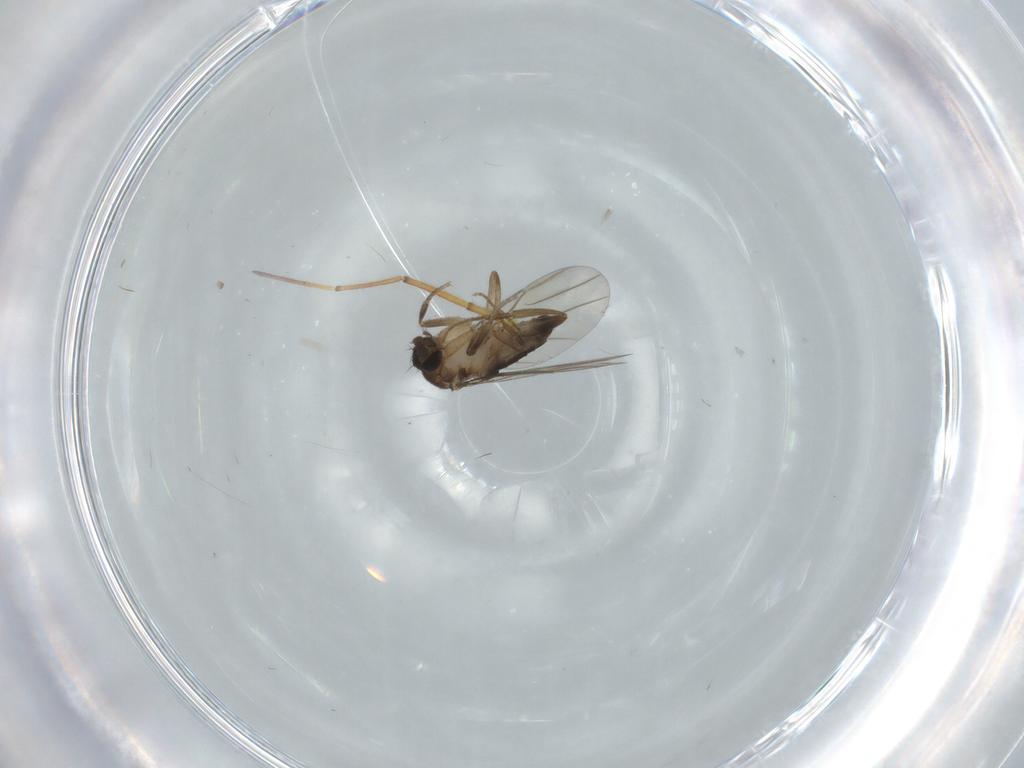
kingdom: Animalia
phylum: Arthropoda
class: Insecta
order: Diptera
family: Phoridae
